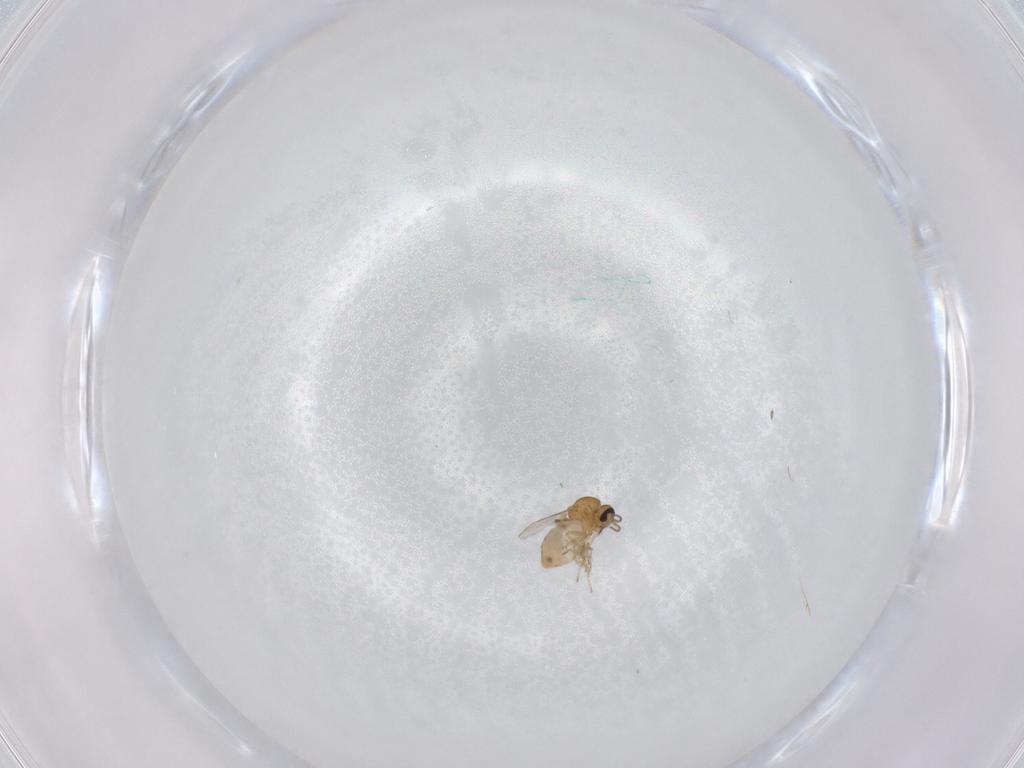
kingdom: Animalia
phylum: Arthropoda
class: Insecta
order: Diptera
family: Ceratopogonidae
